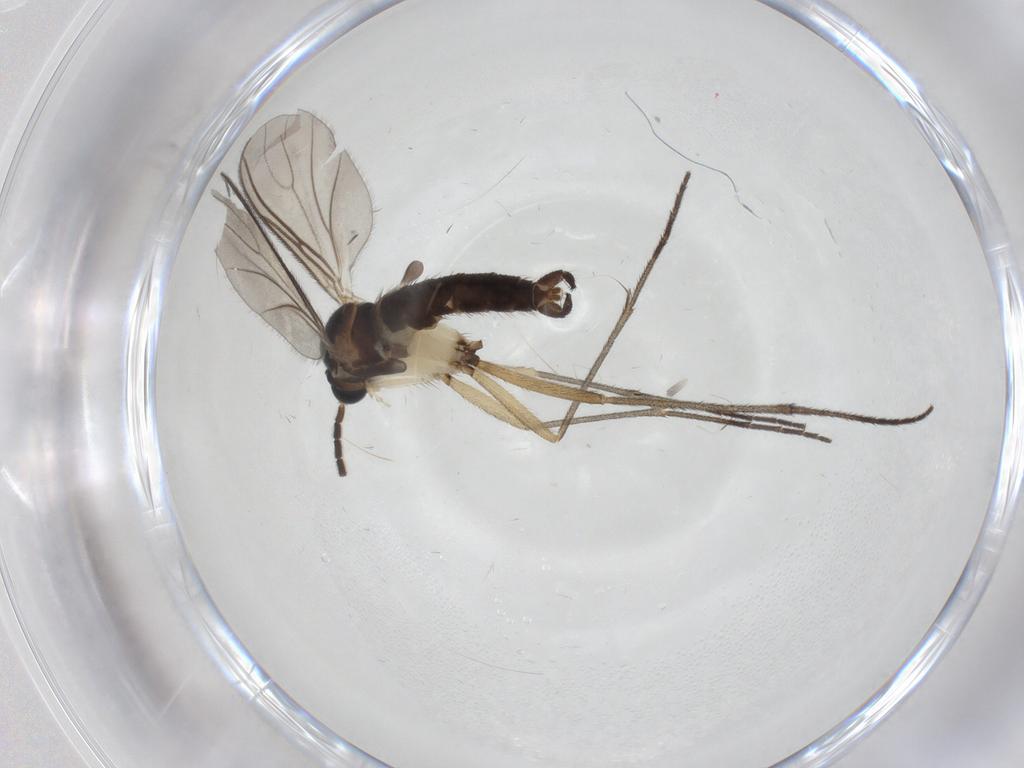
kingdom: Animalia
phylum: Arthropoda
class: Insecta
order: Diptera
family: Sciaridae
